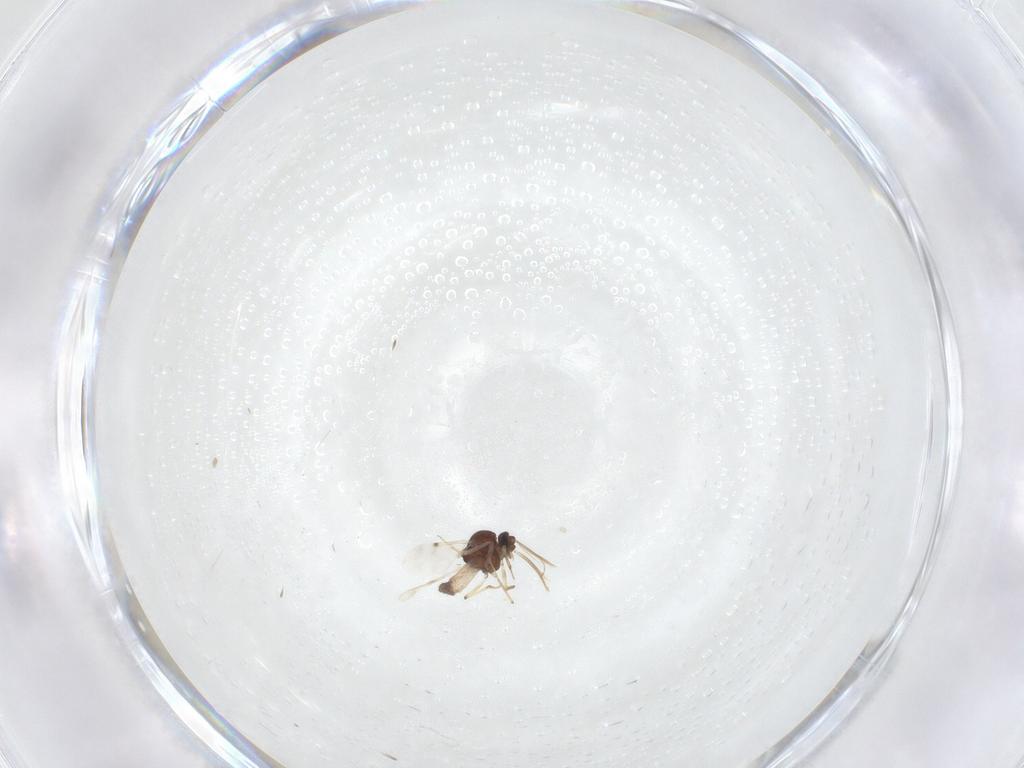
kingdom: Animalia
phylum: Arthropoda
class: Insecta
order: Diptera
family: Ceratopogonidae
